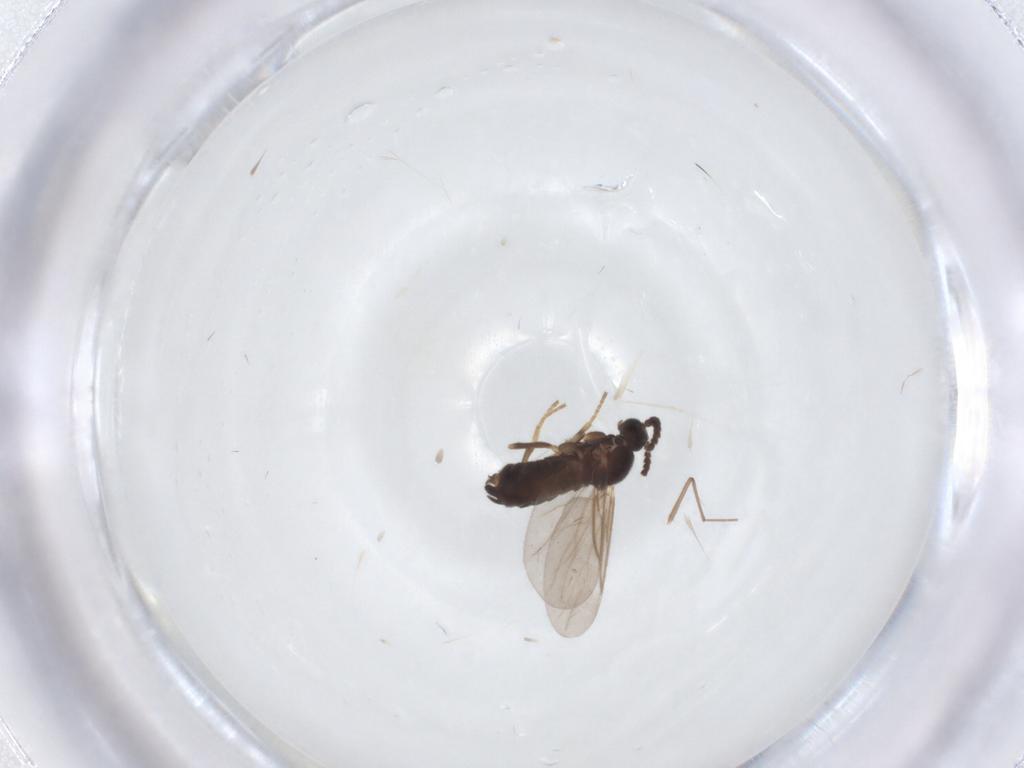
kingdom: Animalia
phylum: Arthropoda
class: Insecta
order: Diptera
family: Scatopsidae
